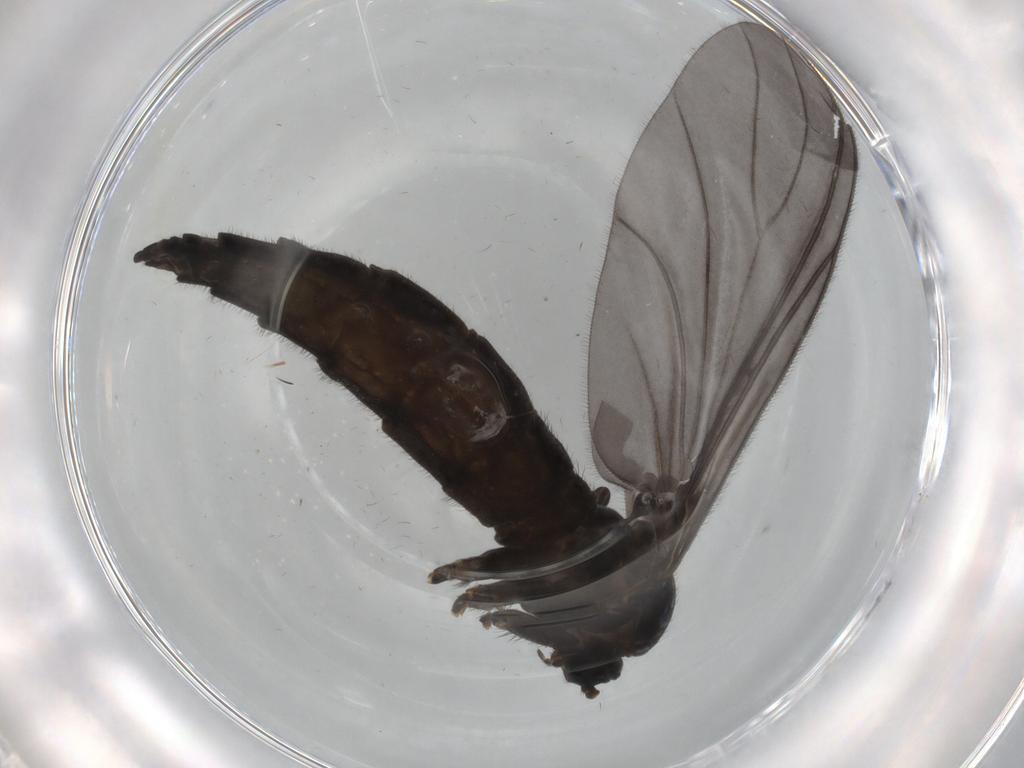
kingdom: Animalia
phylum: Arthropoda
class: Insecta
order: Diptera
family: Sciaridae
